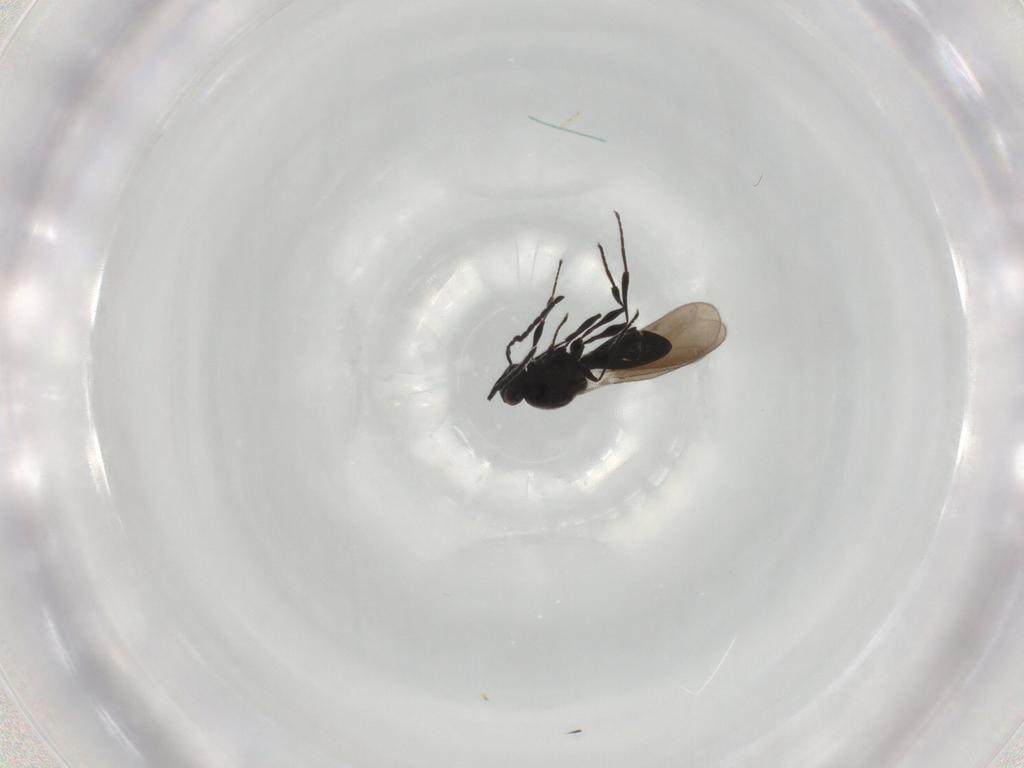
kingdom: Animalia
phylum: Arthropoda
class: Insecta
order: Hymenoptera
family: Platygastridae
